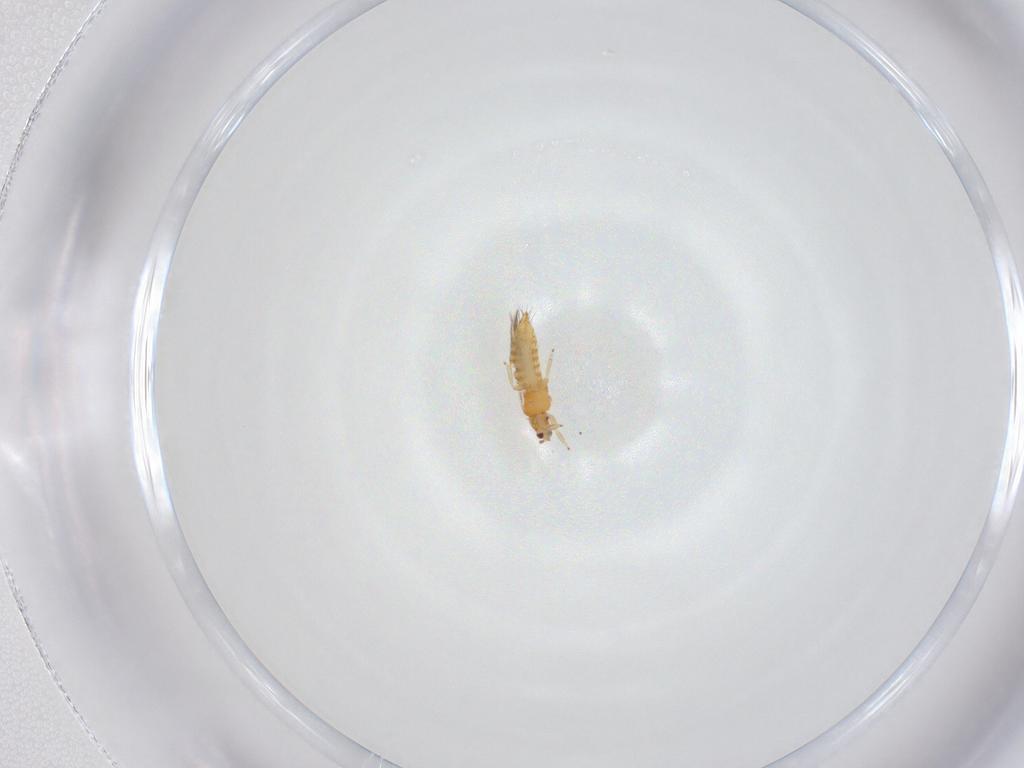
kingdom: Animalia
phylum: Arthropoda
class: Insecta
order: Thysanoptera
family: Thripidae
